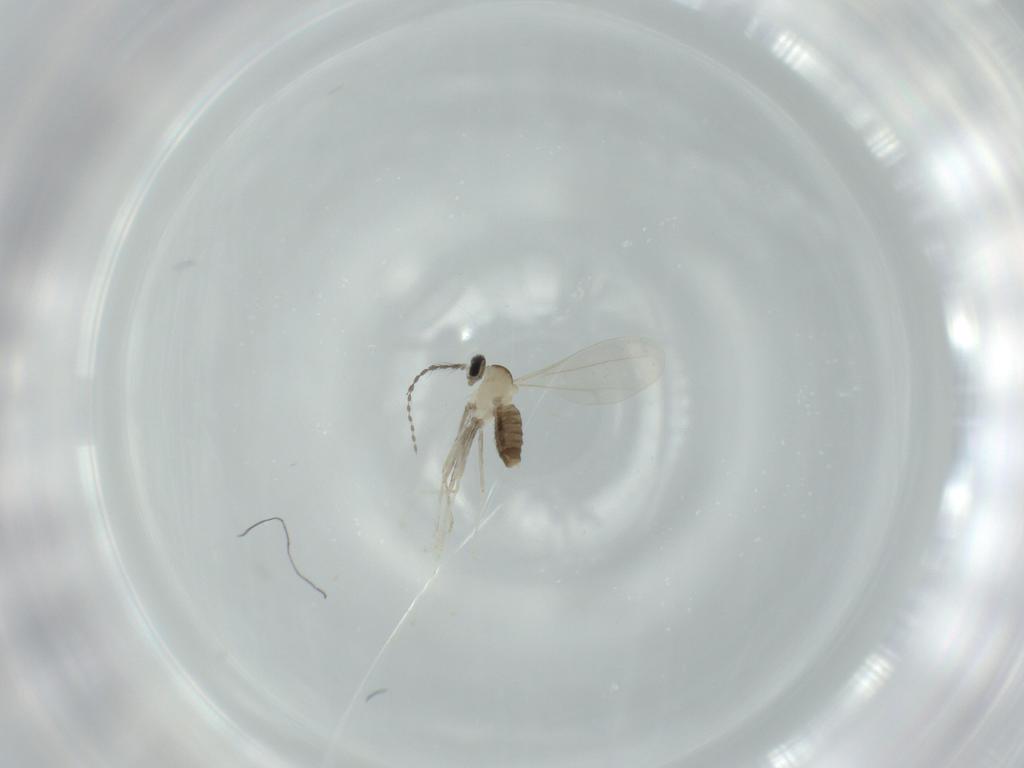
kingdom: Animalia
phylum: Arthropoda
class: Insecta
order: Diptera
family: Cecidomyiidae
